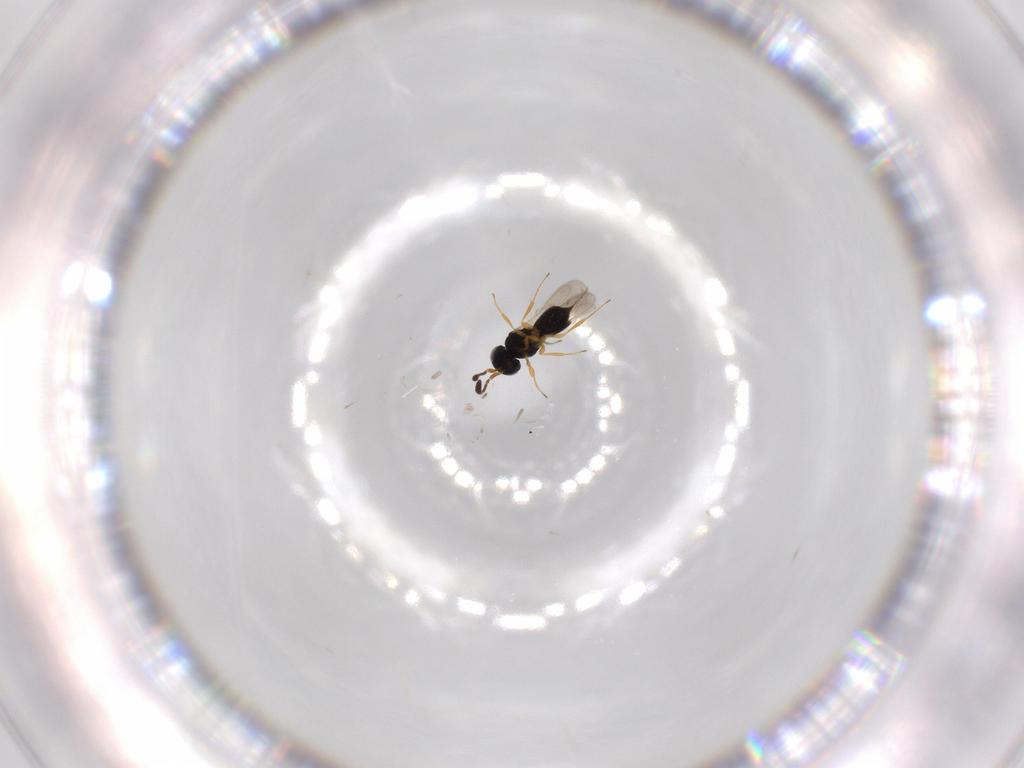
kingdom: Animalia
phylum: Arthropoda
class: Insecta
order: Hymenoptera
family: Scelionidae
